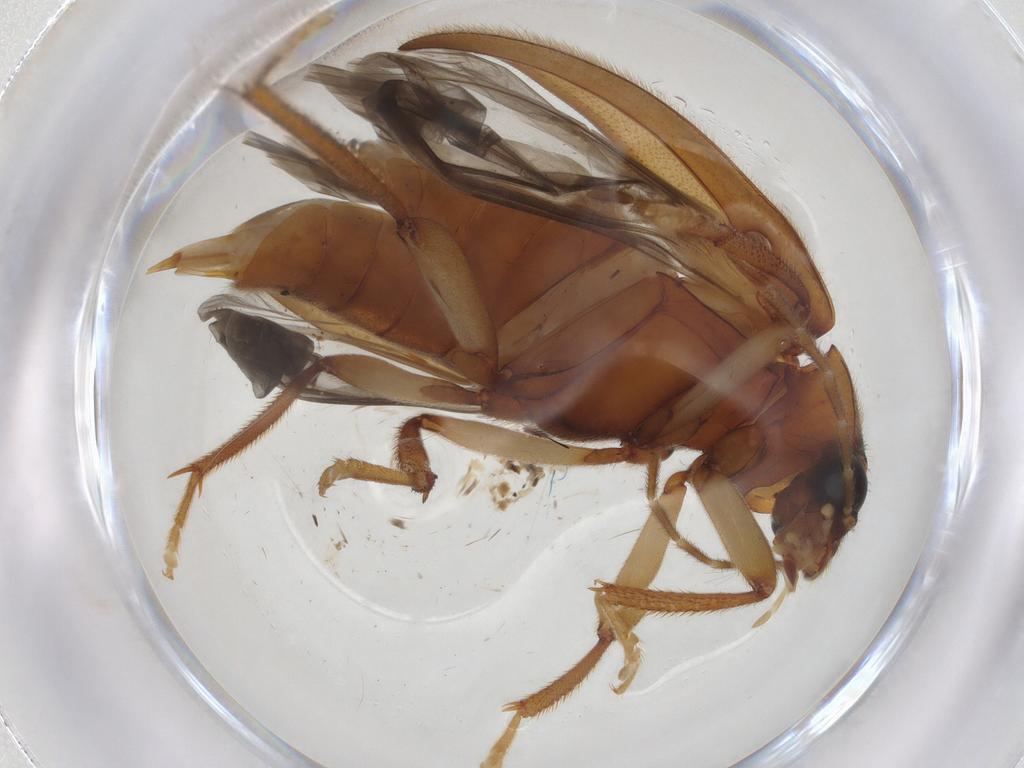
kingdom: Animalia
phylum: Arthropoda
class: Insecta
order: Coleoptera
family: Ptilodactylidae
